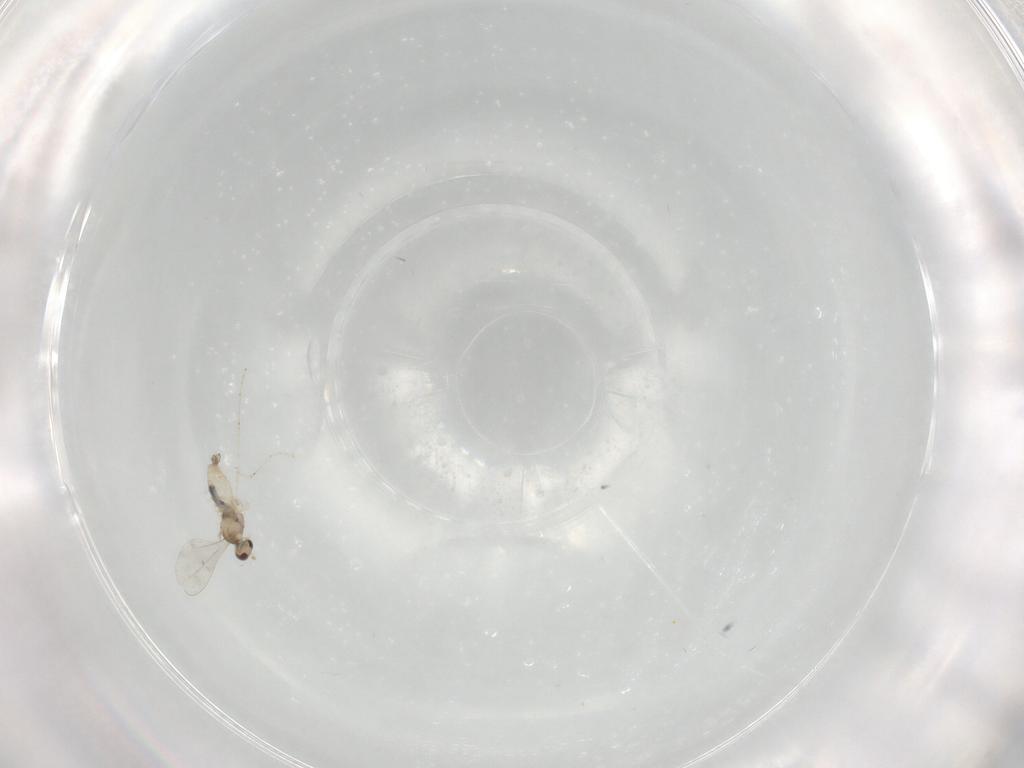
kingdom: Animalia
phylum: Arthropoda
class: Insecta
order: Diptera
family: Cecidomyiidae
